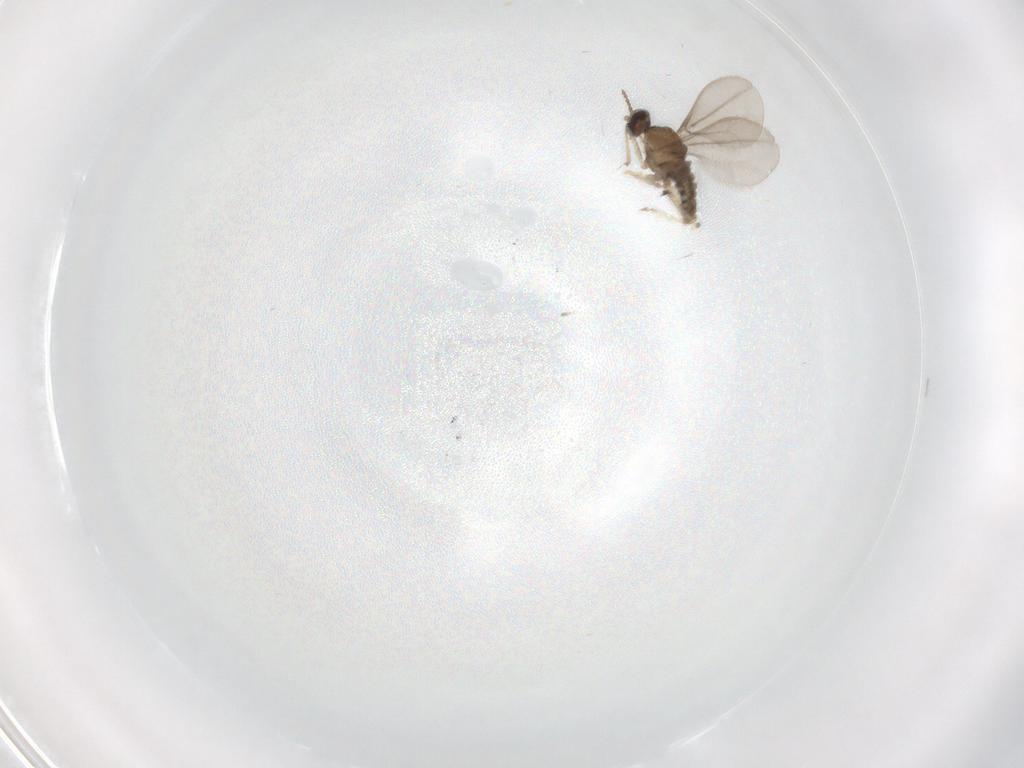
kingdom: Animalia
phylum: Arthropoda
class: Insecta
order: Diptera
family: Cecidomyiidae
